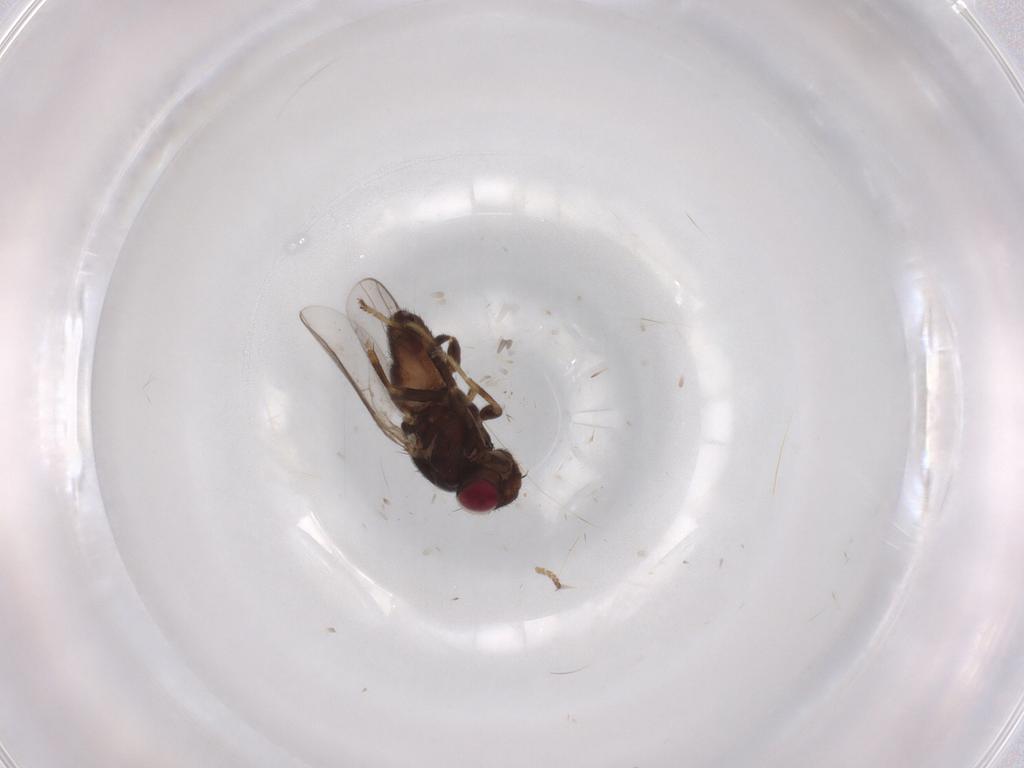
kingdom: Animalia
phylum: Arthropoda
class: Insecta
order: Diptera
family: Chloropidae
